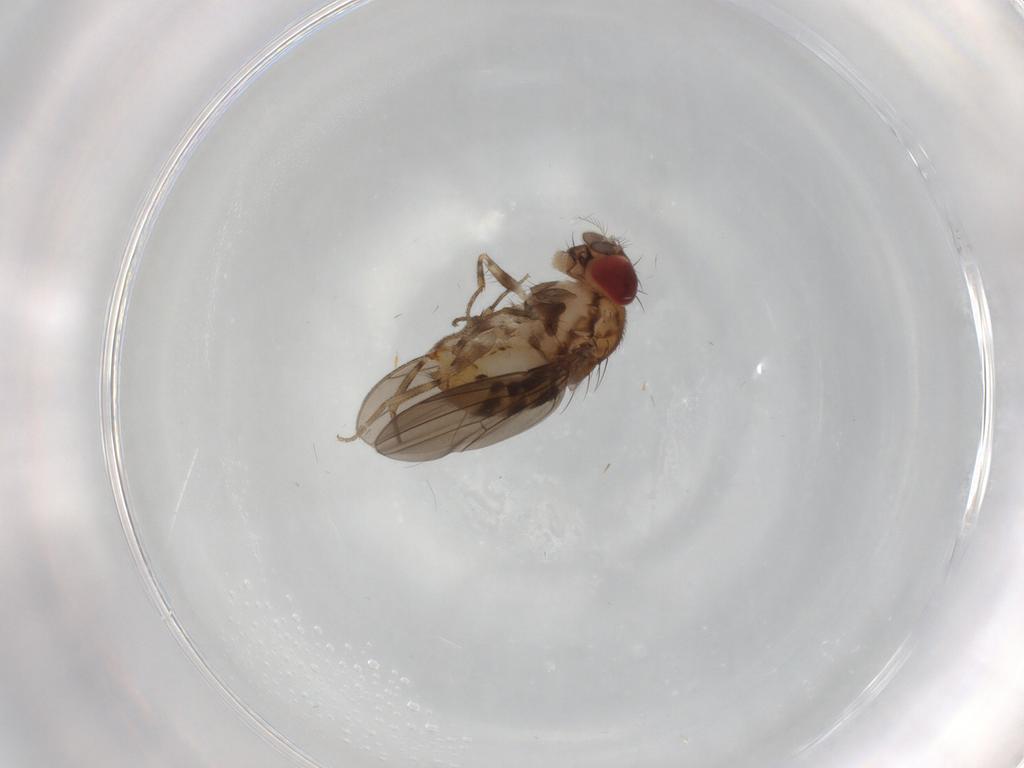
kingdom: Animalia
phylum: Arthropoda
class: Insecta
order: Diptera
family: Drosophilidae
